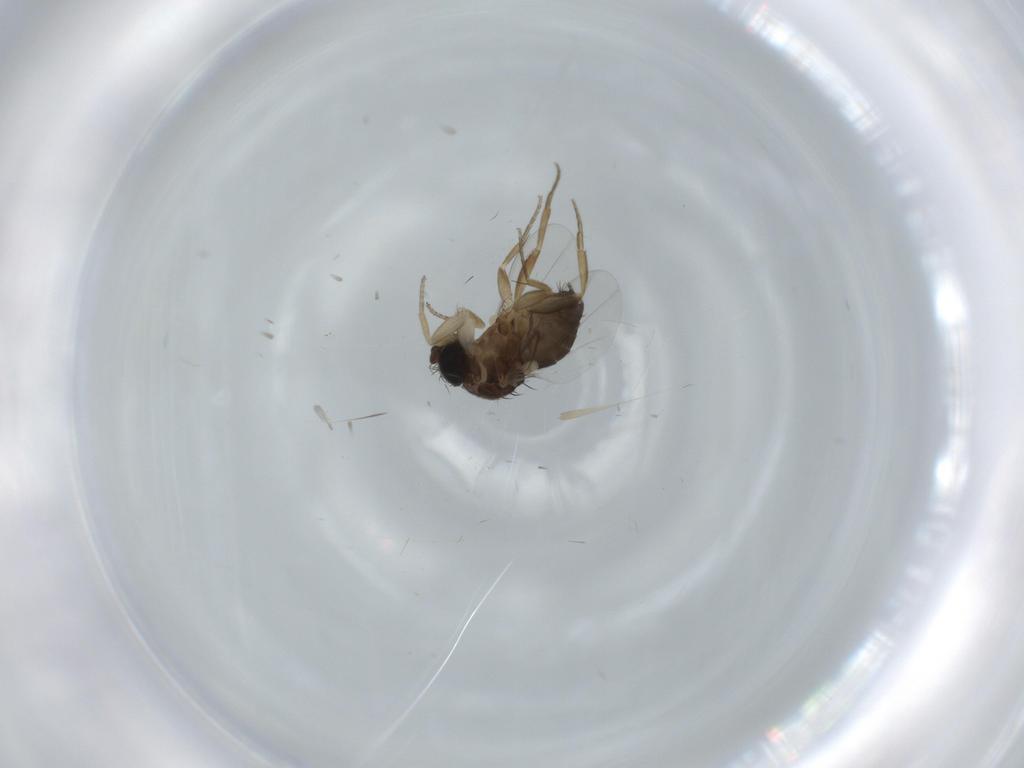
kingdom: Animalia
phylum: Arthropoda
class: Insecta
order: Diptera
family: Phoridae
